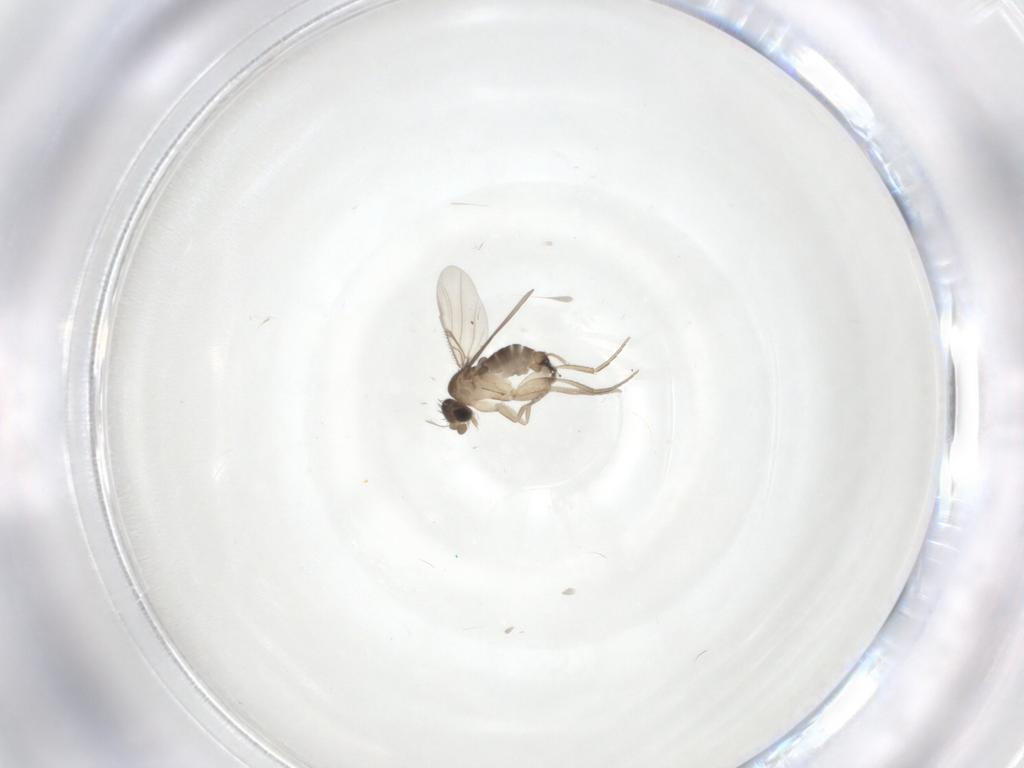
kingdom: Animalia
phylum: Arthropoda
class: Insecta
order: Diptera
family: Phoridae
